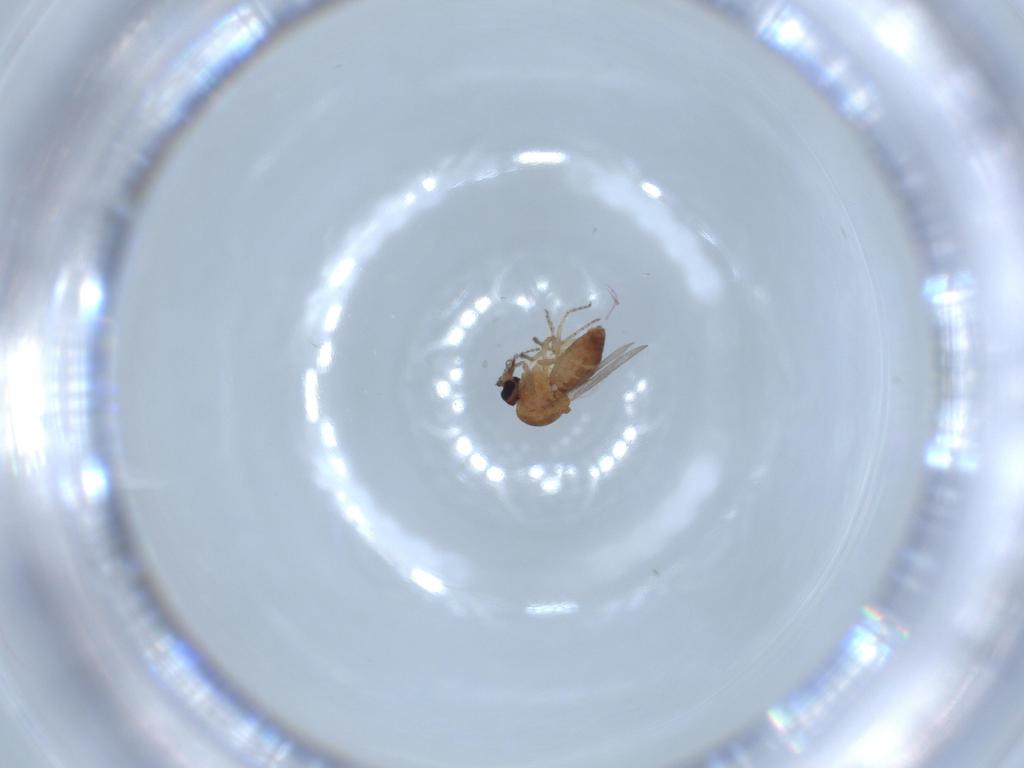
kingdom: Animalia
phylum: Arthropoda
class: Insecta
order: Diptera
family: Ceratopogonidae
